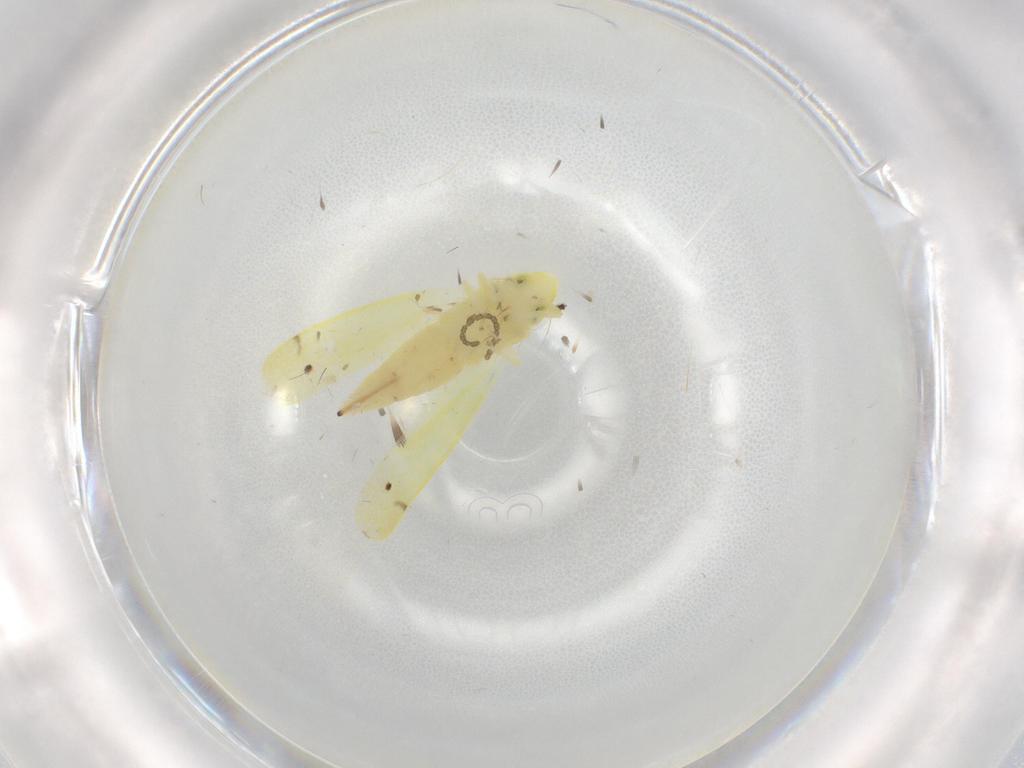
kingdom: Animalia
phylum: Arthropoda
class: Insecta
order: Hemiptera
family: Cicadellidae
